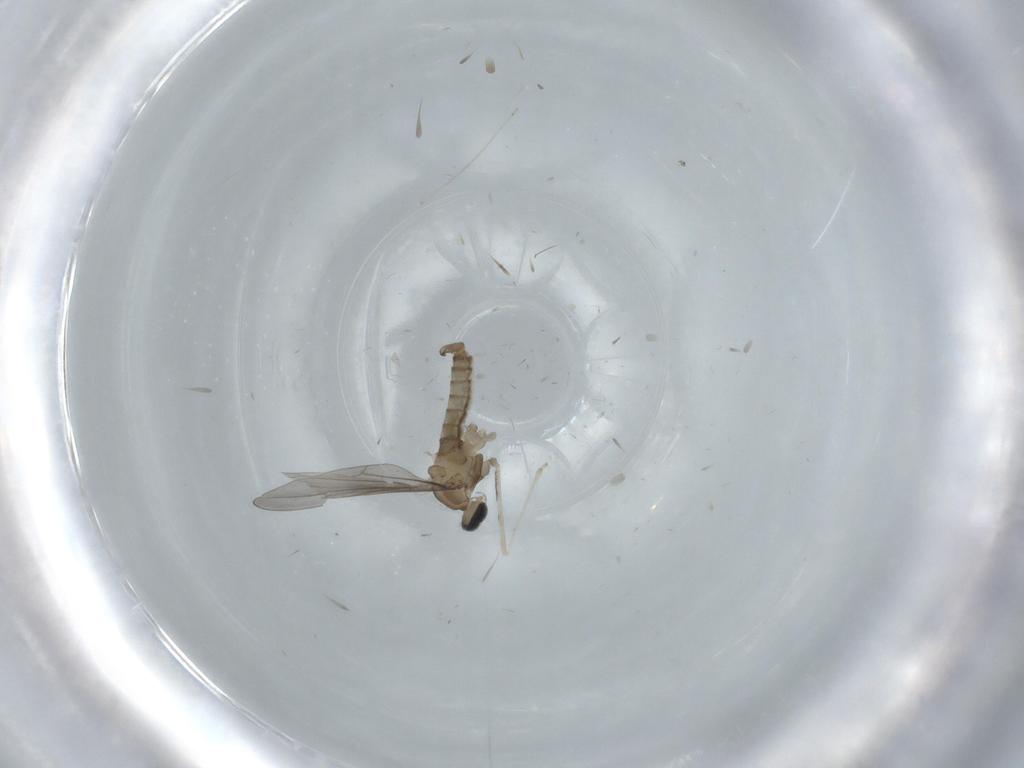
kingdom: Animalia
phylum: Arthropoda
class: Insecta
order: Diptera
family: Cecidomyiidae
